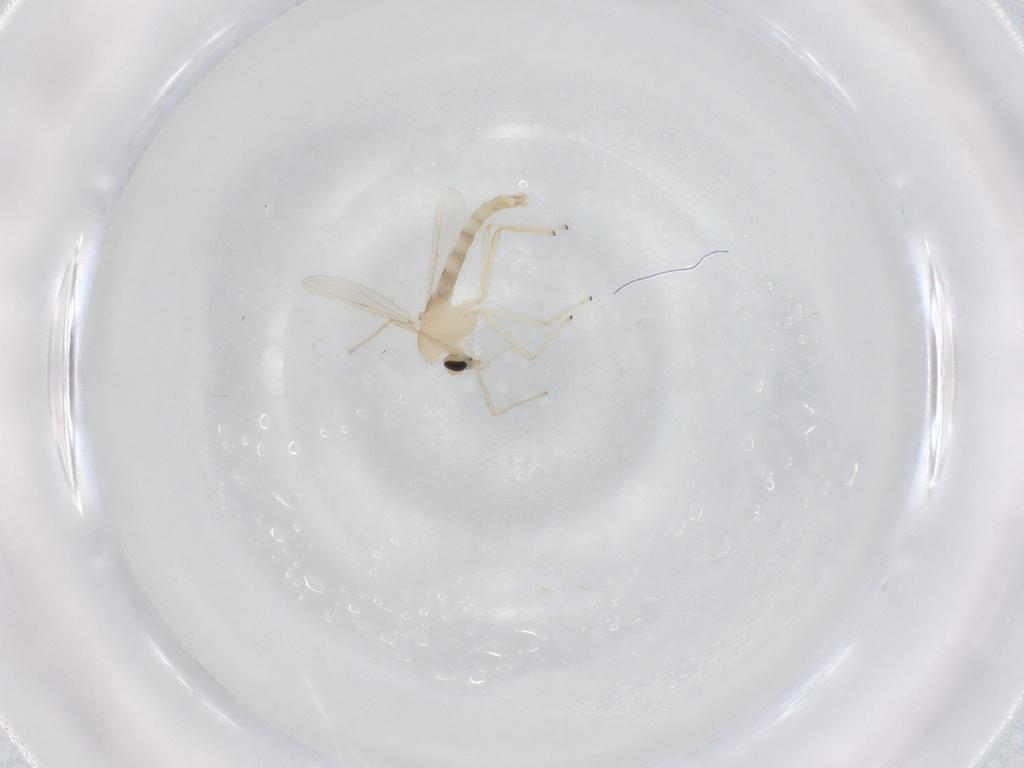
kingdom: Animalia
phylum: Arthropoda
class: Insecta
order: Diptera
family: Chironomidae
